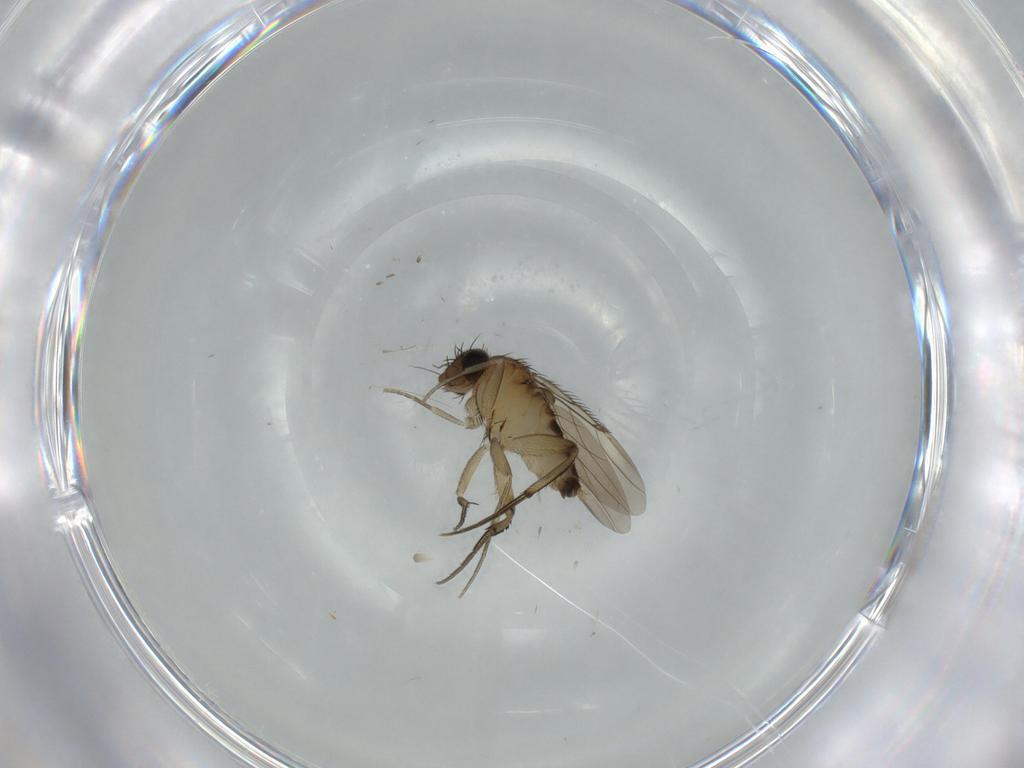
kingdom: Animalia
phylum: Arthropoda
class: Insecta
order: Diptera
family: Phoridae
